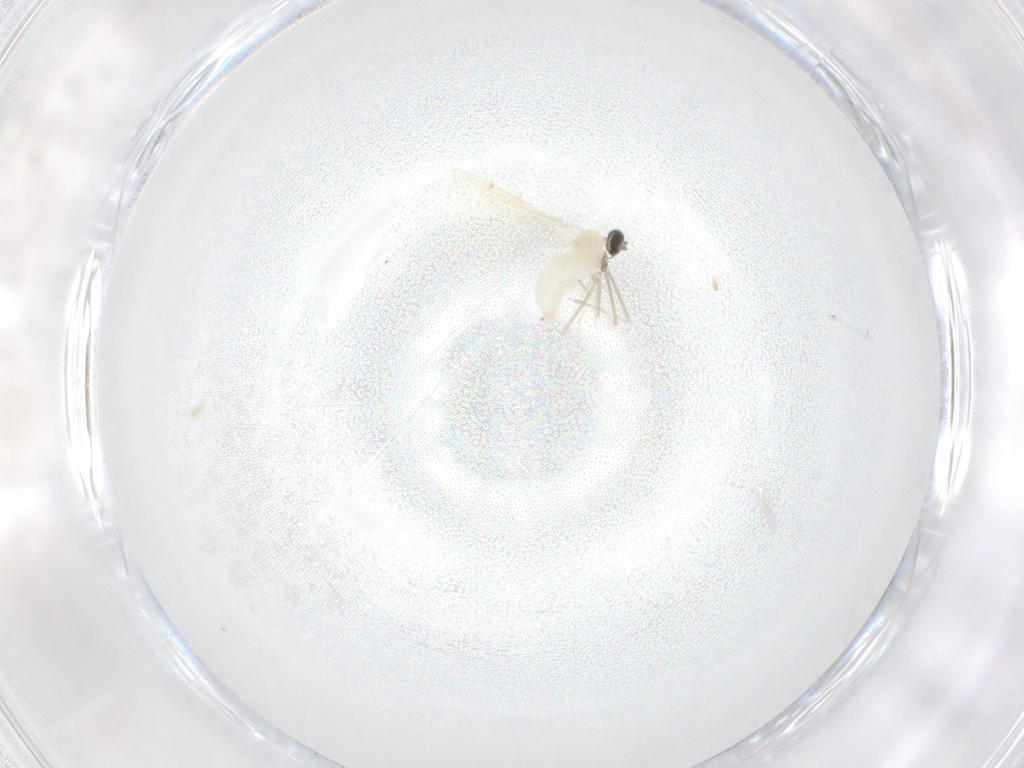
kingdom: Animalia
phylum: Arthropoda
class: Insecta
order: Diptera
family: Cecidomyiidae
